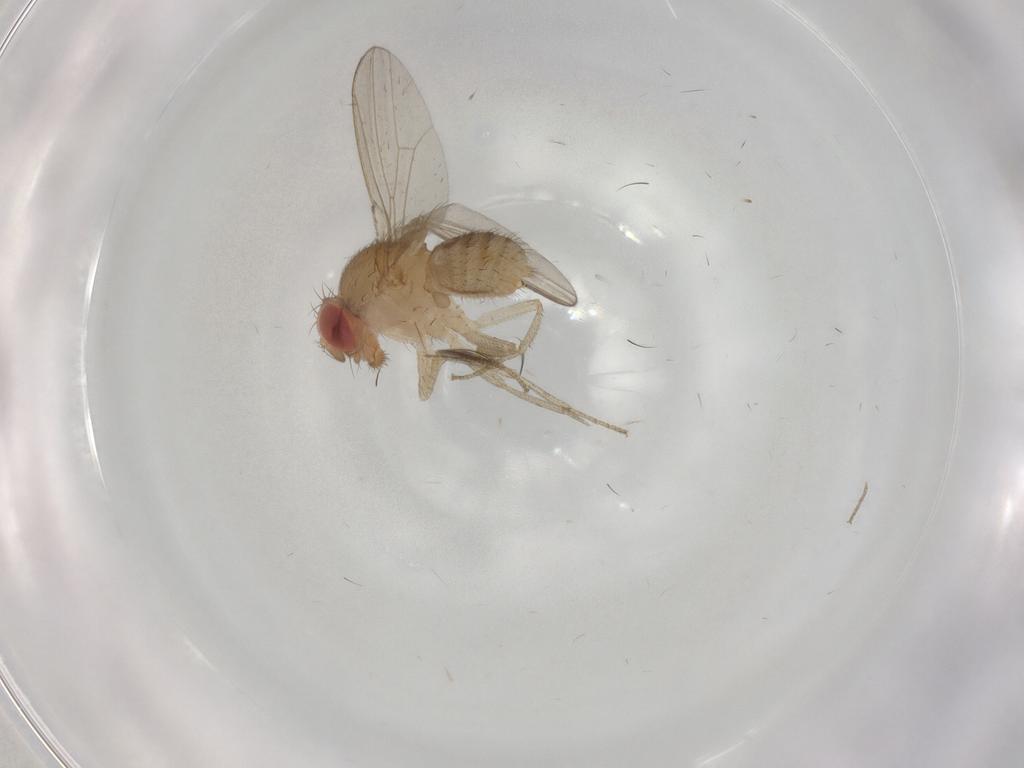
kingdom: Animalia
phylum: Arthropoda
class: Insecta
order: Diptera
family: Drosophilidae
